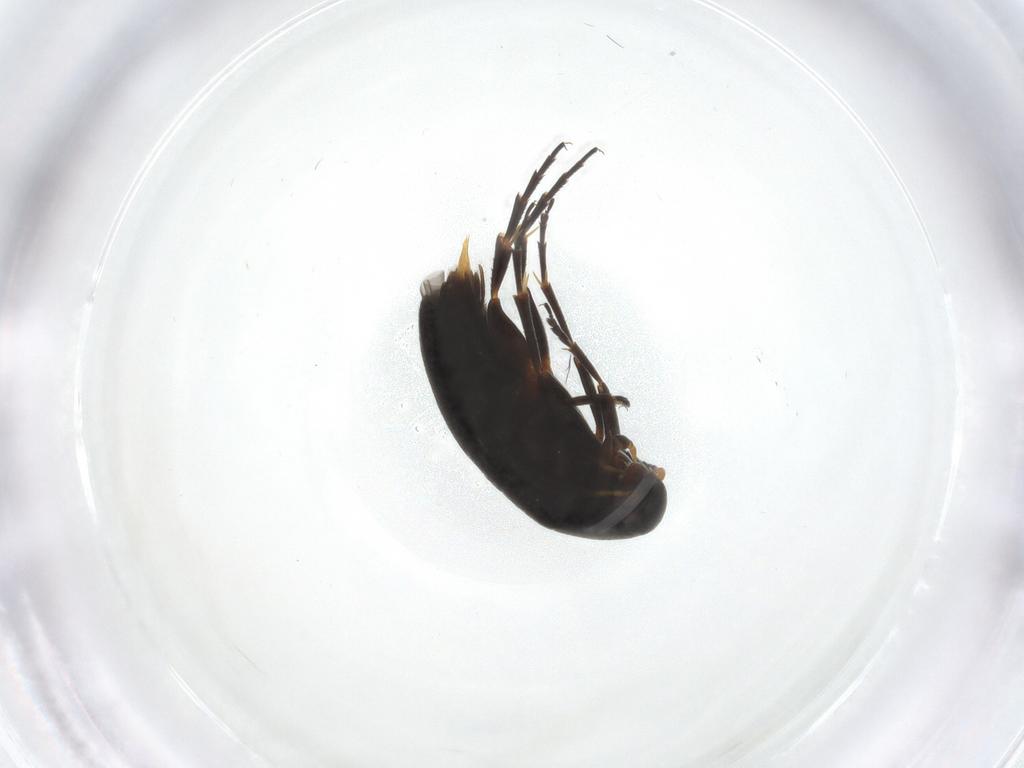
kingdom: Animalia
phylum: Arthropoda
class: Insecta
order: Coleoptera
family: Scraptiidae
